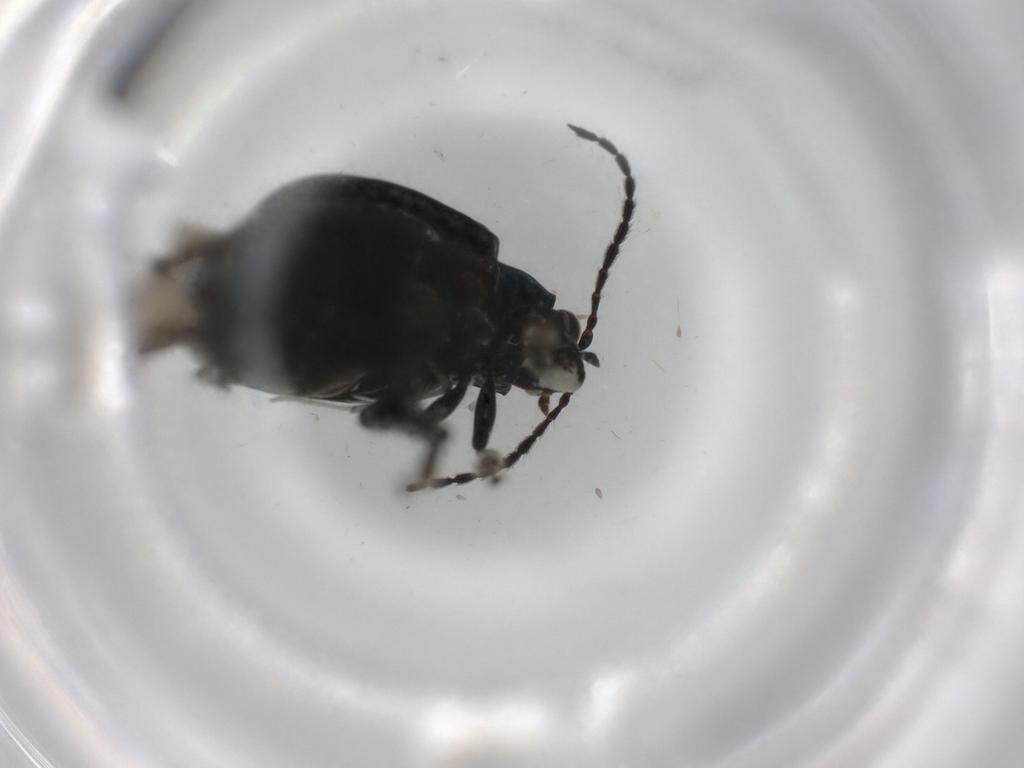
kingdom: Animalia
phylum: Arthropoda
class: Insecta
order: Coleoptera
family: Chrysomelidae
